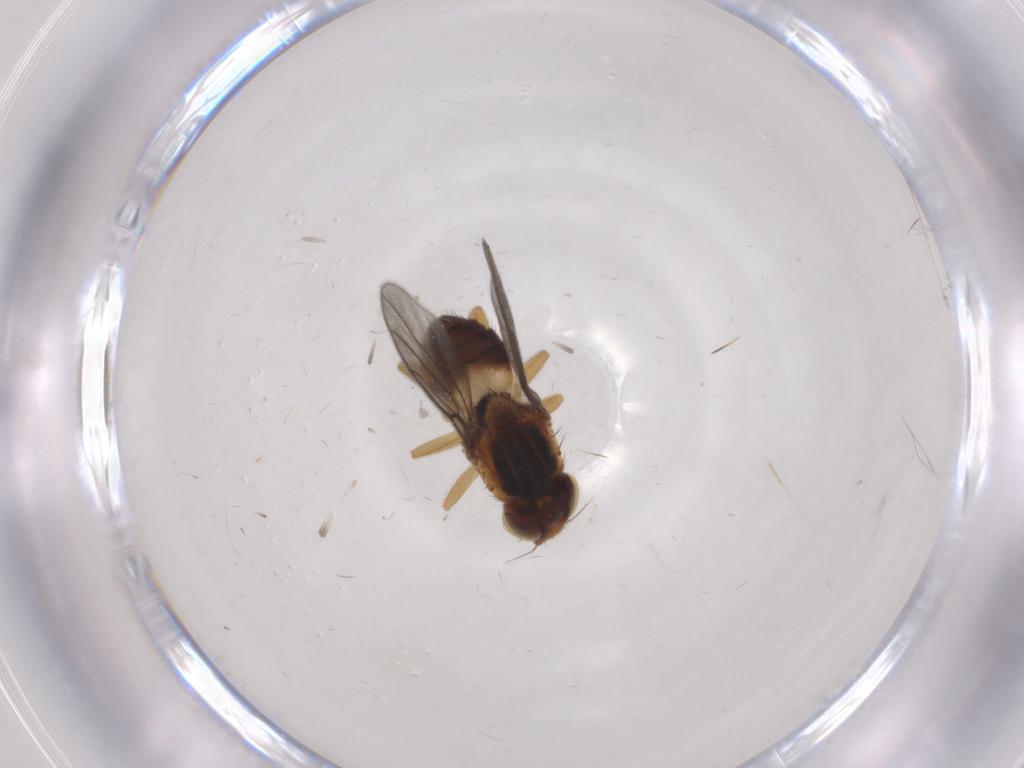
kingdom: Animalia
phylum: Arthropoda
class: Insecta
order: Diptera
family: Chloropidae
